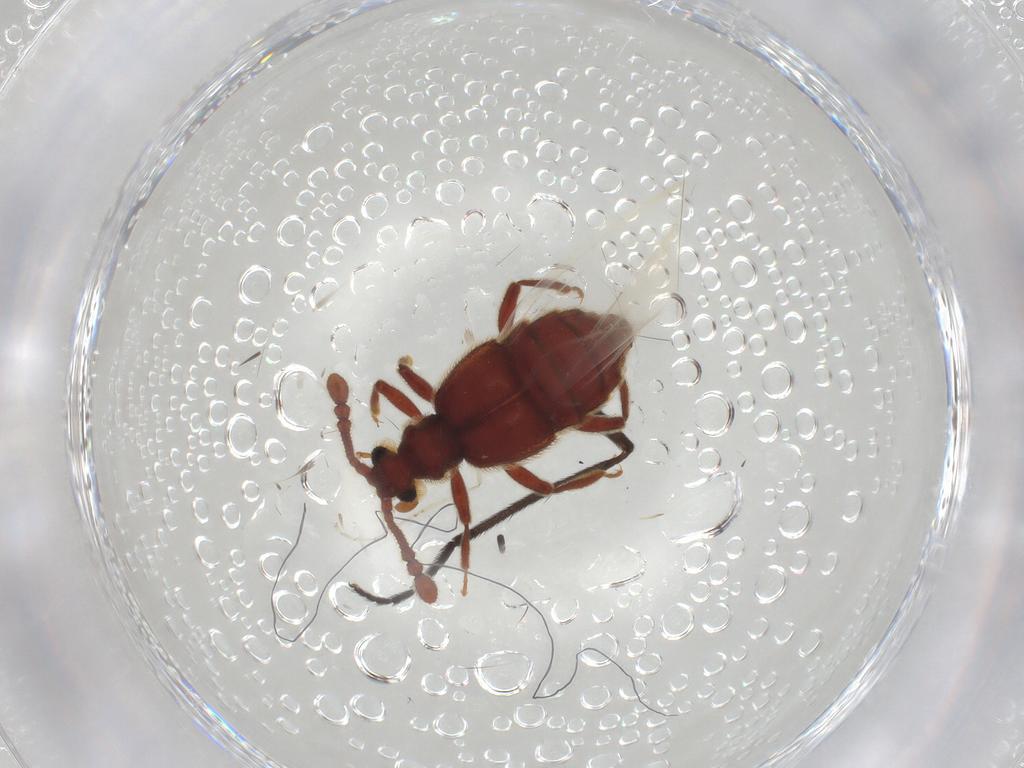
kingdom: Animalia
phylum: Arthropoda
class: Insecta
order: Coleoptera
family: Staphylinidae
